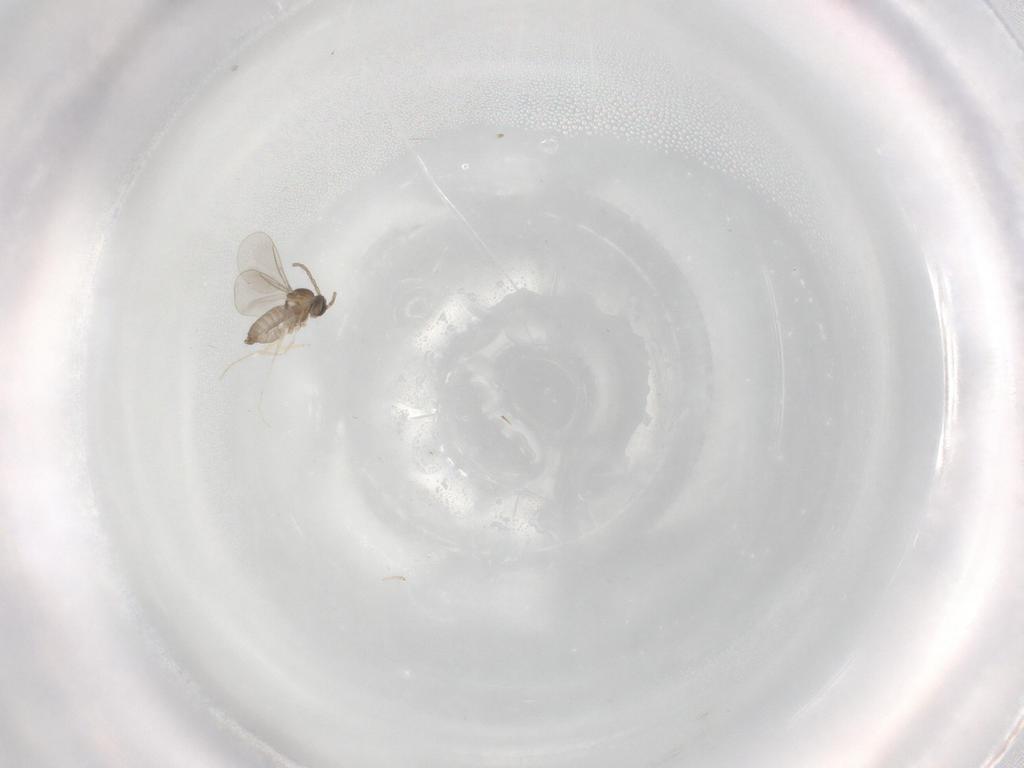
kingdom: Animalia
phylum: Arthropoda
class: Insecta
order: Diptera
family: Cecidomyiidae
